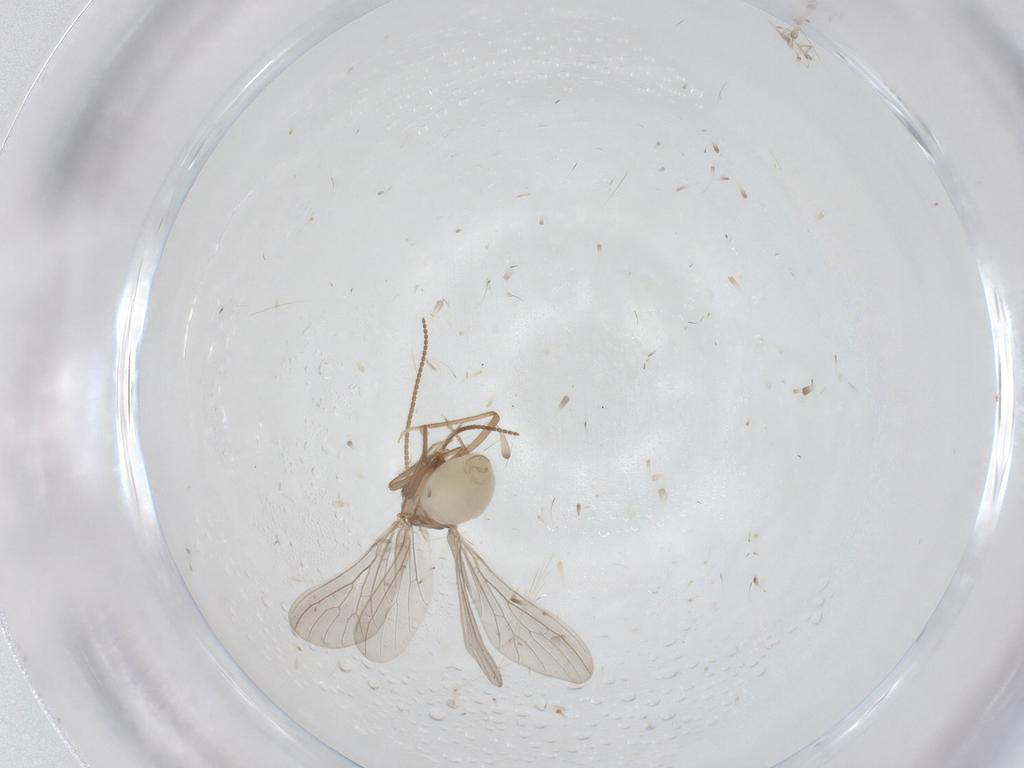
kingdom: Animalia
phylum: Arthropoda
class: Insecta
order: Neuroptera
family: Coniopterygidae
